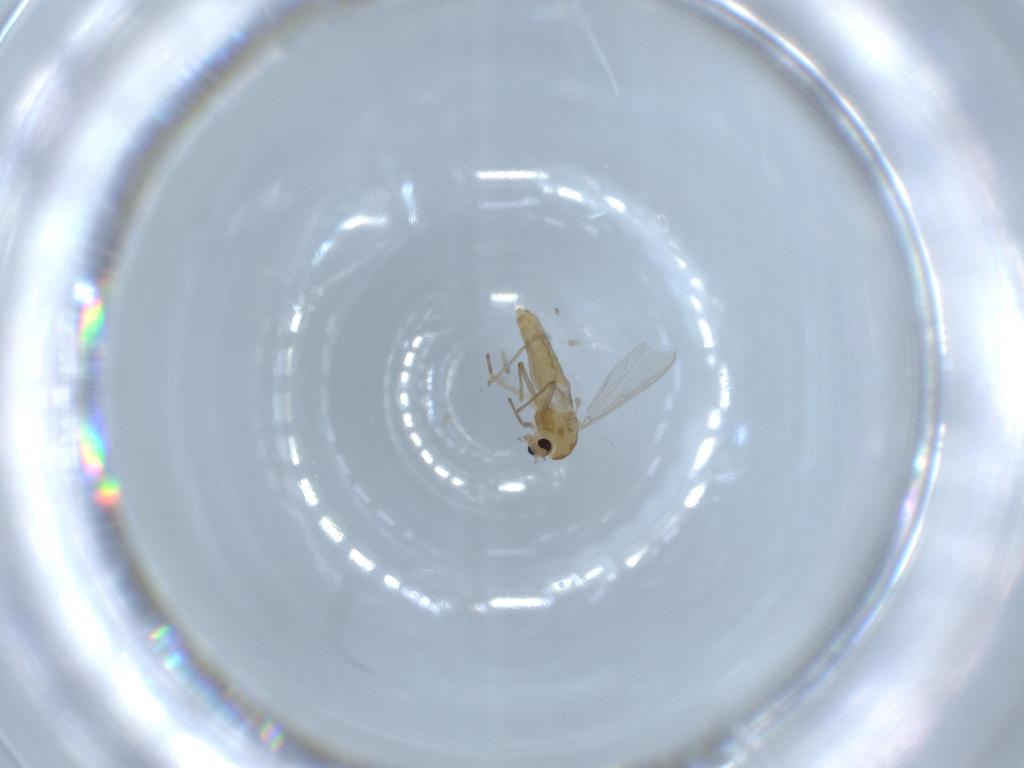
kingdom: Animalia
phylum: Arthropoda
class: Insecta
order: Diptera
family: Chironomidae
